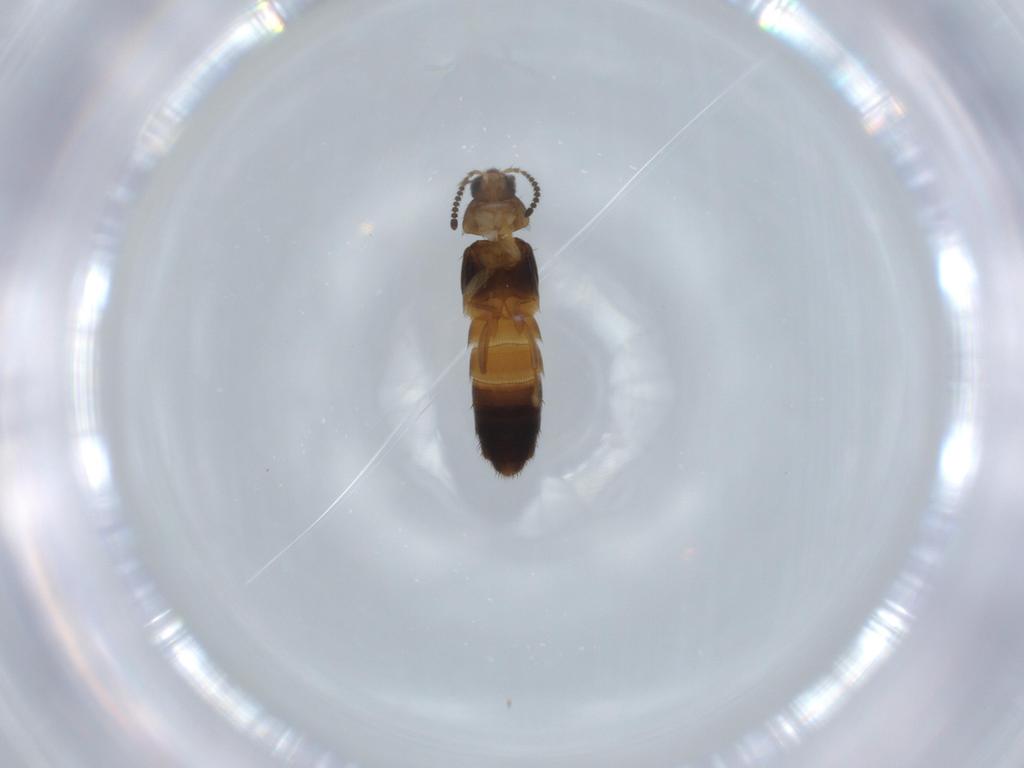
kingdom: Animalia
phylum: Arthropoda
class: Insecta
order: Coleoptera
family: Staphylinidae
